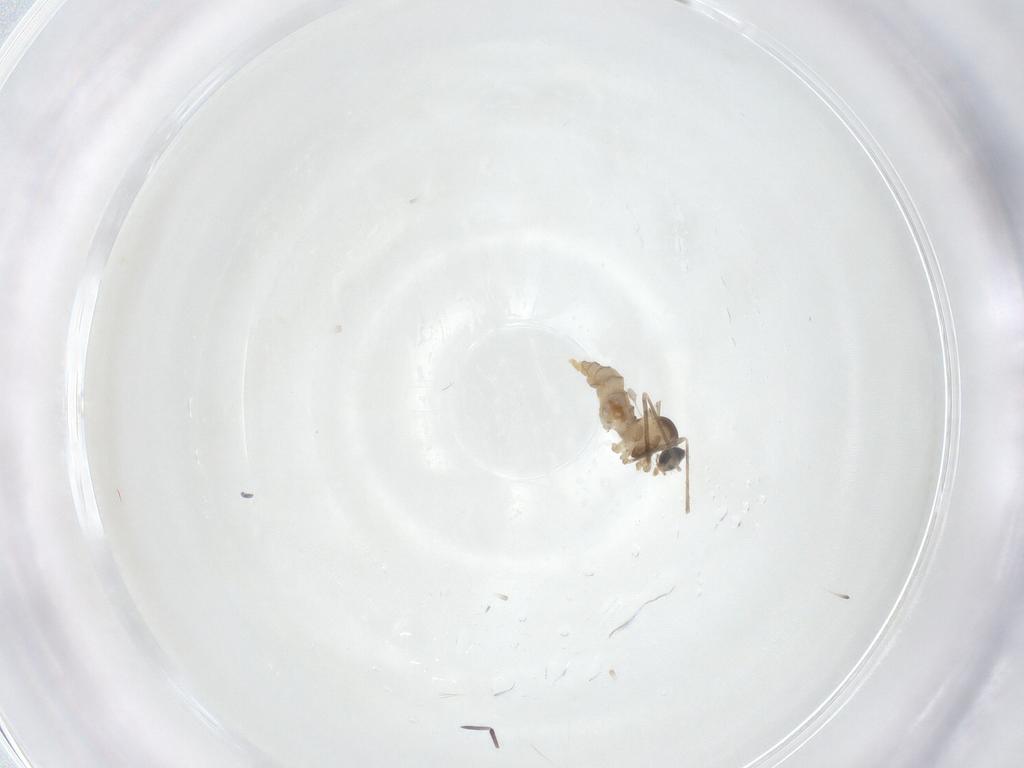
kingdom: Animalia
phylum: Arthropoda
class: Insecta
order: Diptera
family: Cecidomyiidae
